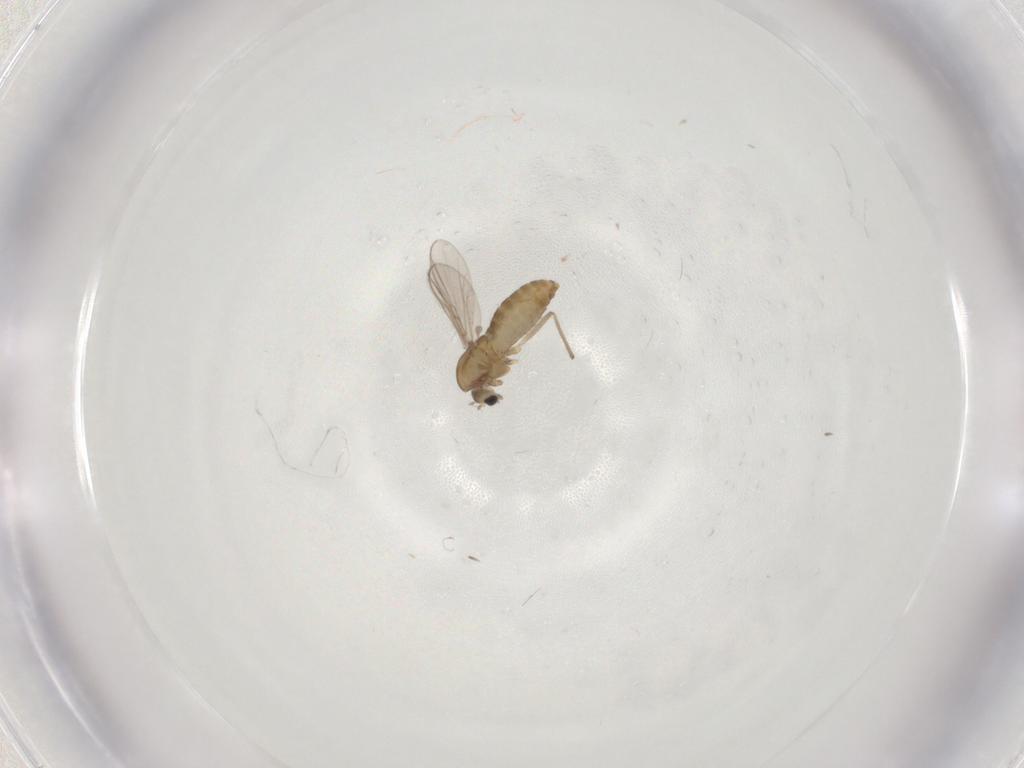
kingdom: Animalia
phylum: Arthropoda
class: Insecta
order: Diptera
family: Chironomidae
